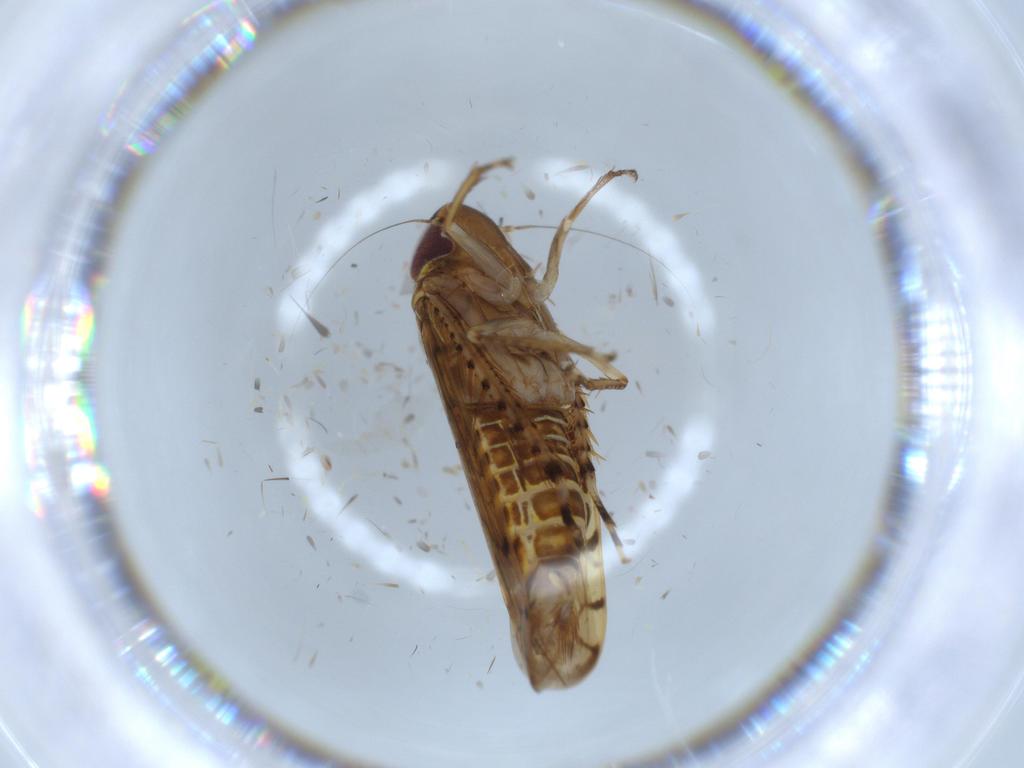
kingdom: Animalia
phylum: Arthropoda
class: Insecta
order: Hemiptera
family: Cicadellidae
